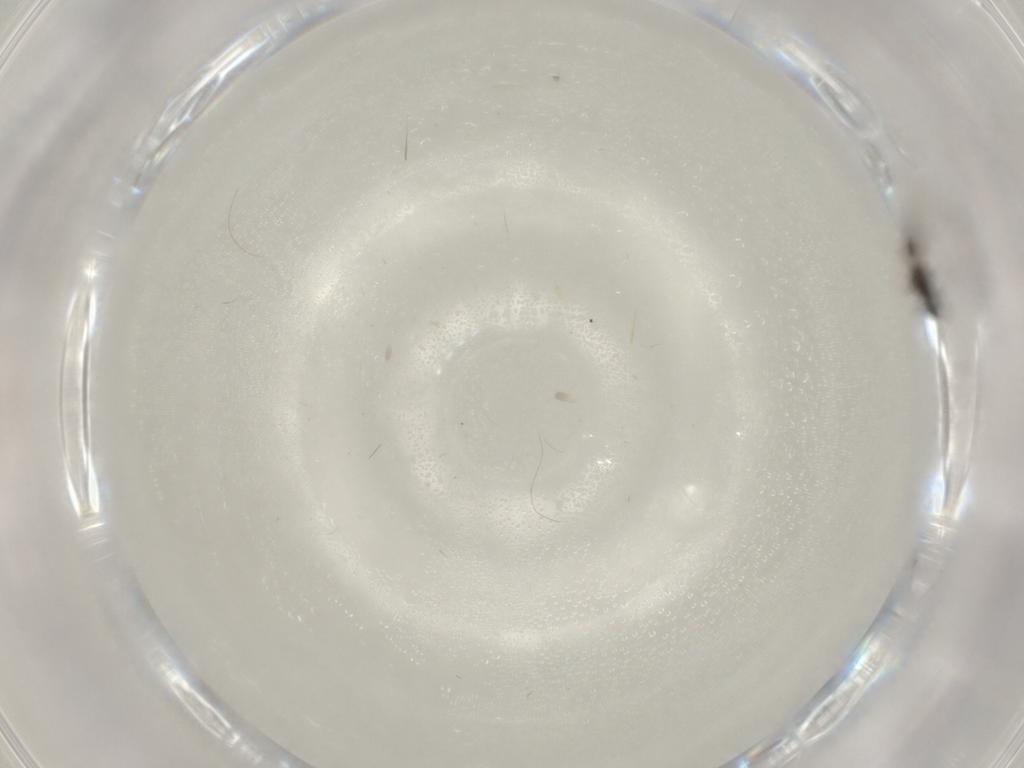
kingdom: Animalia
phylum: Arthropoda
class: Insecta
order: Hymenoptera
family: Figitidae
